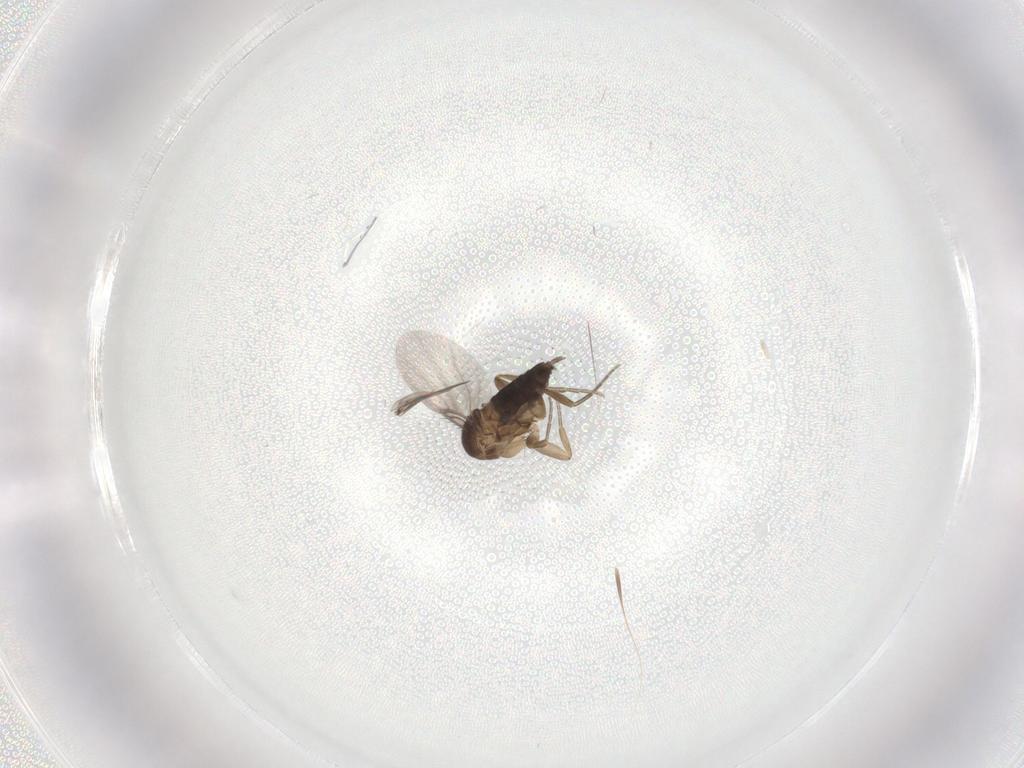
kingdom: Animalia
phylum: Arthropoda
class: Insecta
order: Diptera
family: Phoridae
